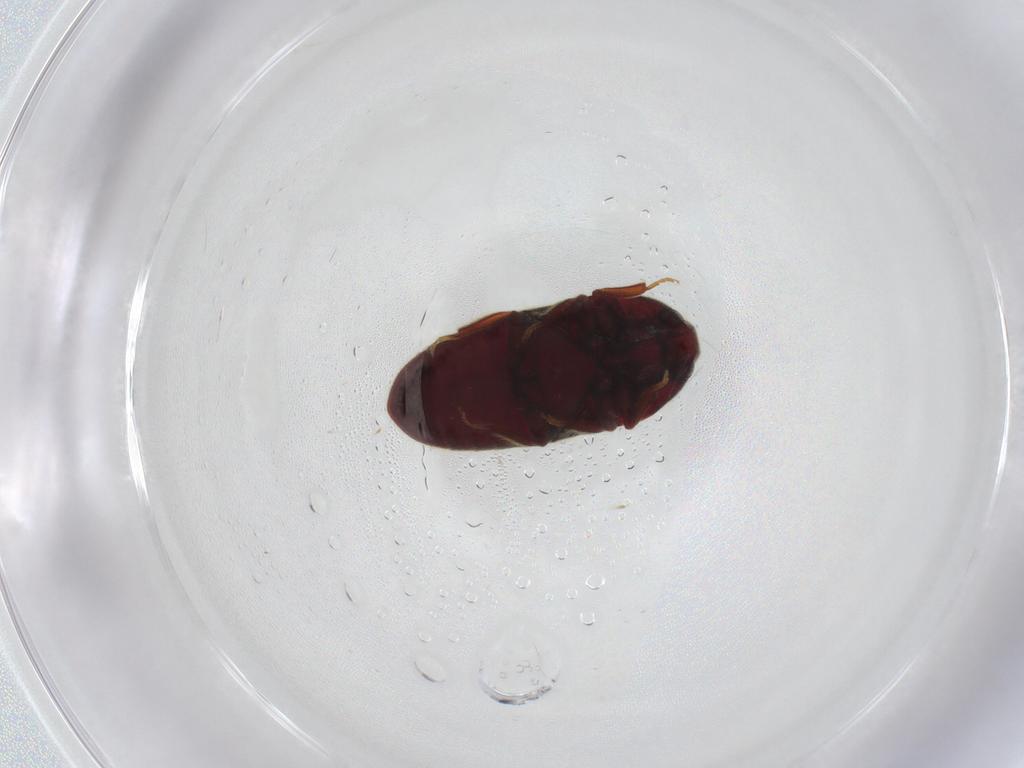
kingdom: Animalia
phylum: Arthropoda
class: Insecta
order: Coleoptera
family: Throscidae
